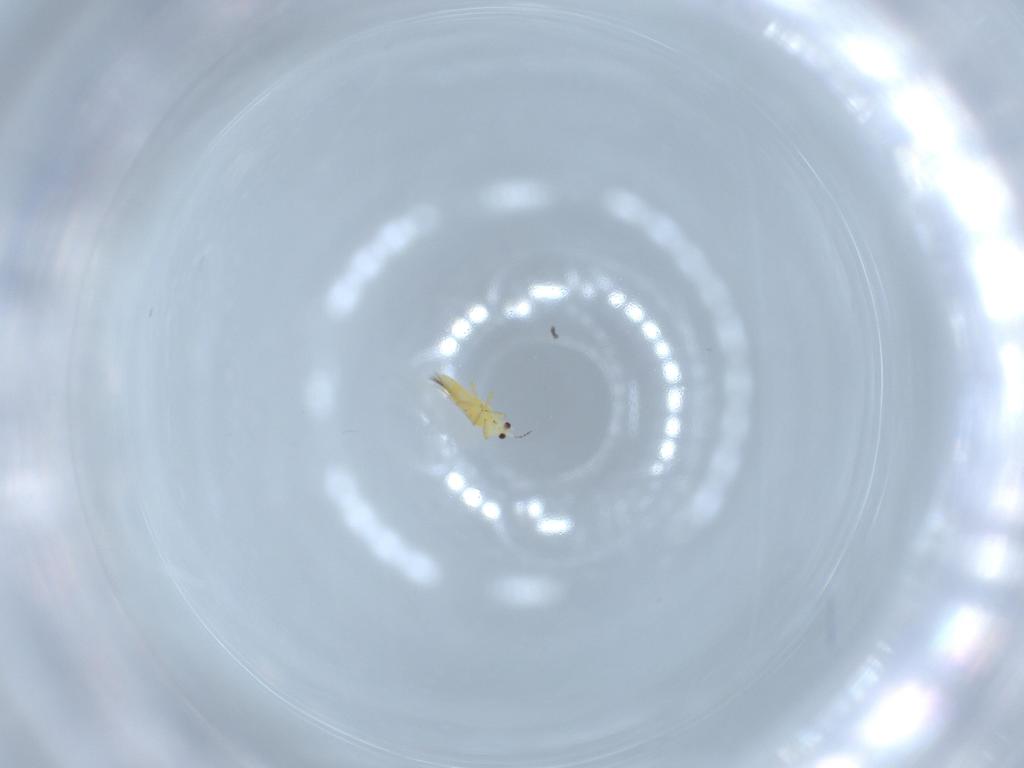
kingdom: Animalia
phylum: Arthropoda
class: Insecta
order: Thysanoptera
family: Thripidae
